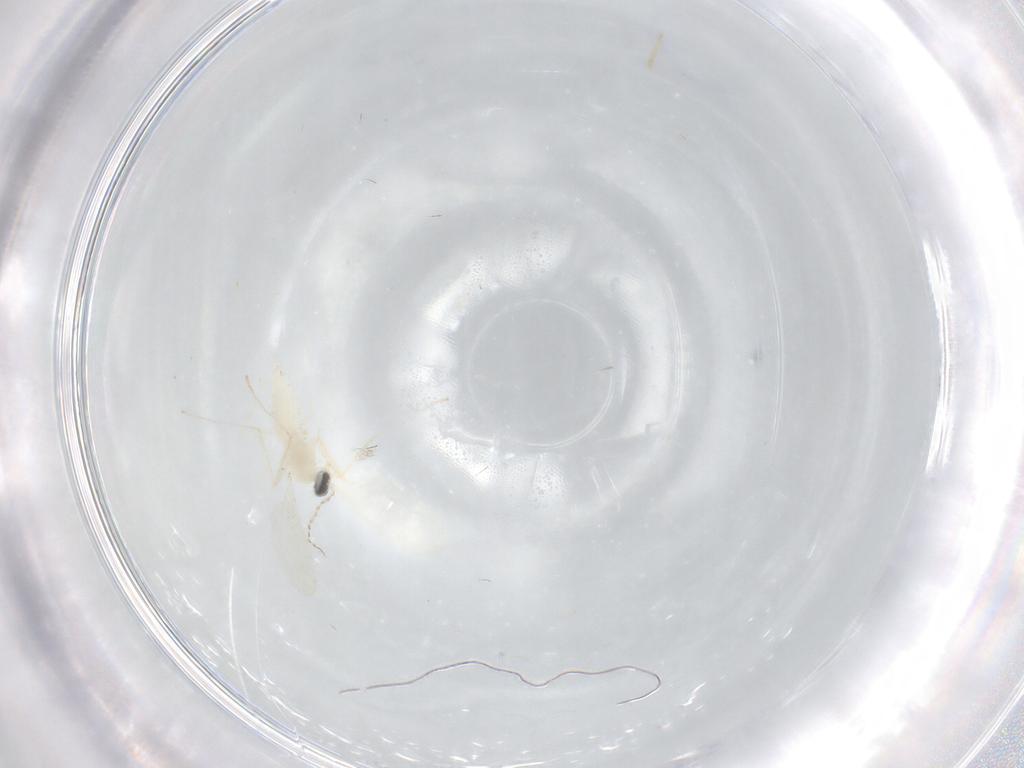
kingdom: Animalia
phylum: Arthropoda
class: Insecta
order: Diptera
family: Cecidomyiidae
